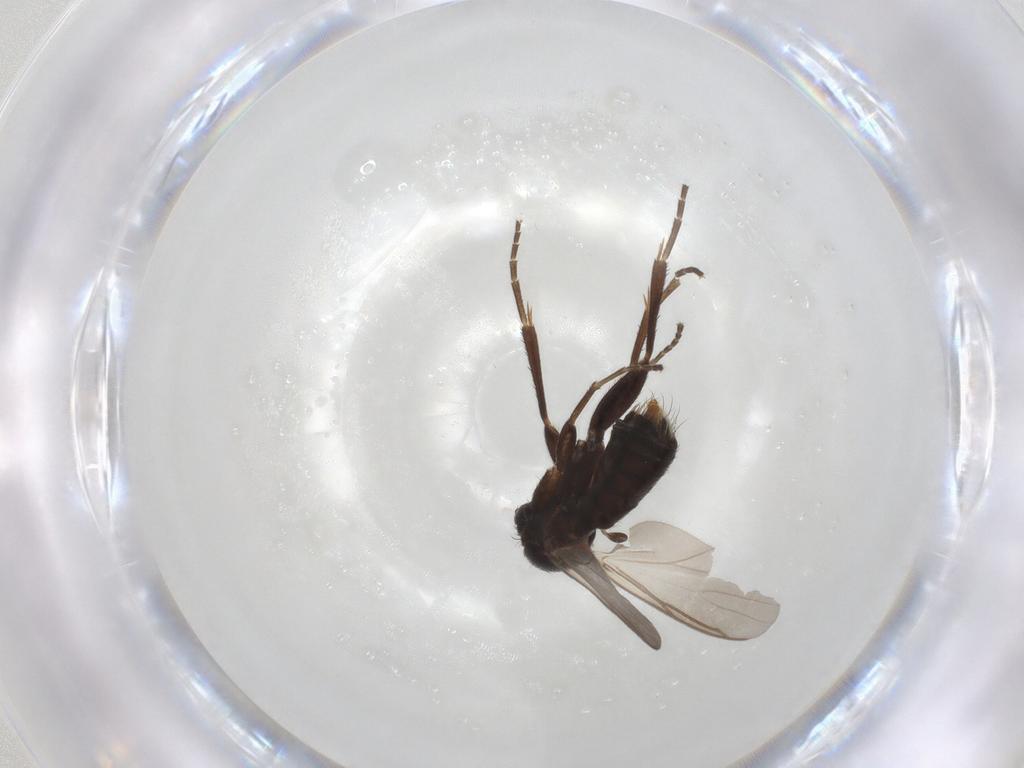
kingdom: Animalia
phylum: Arthropoda
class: Insecta
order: Diptera
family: Mycetophilidae
